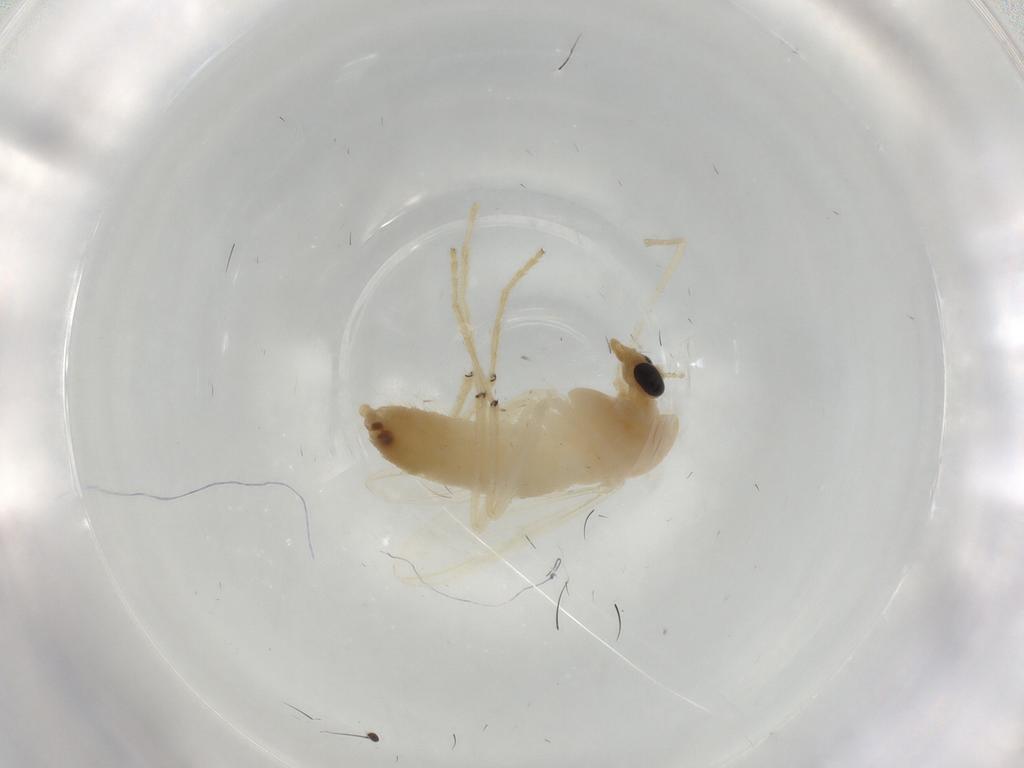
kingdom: Animalia
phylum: Arthropoda
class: Insecta
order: Diptera
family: Chironomidae
